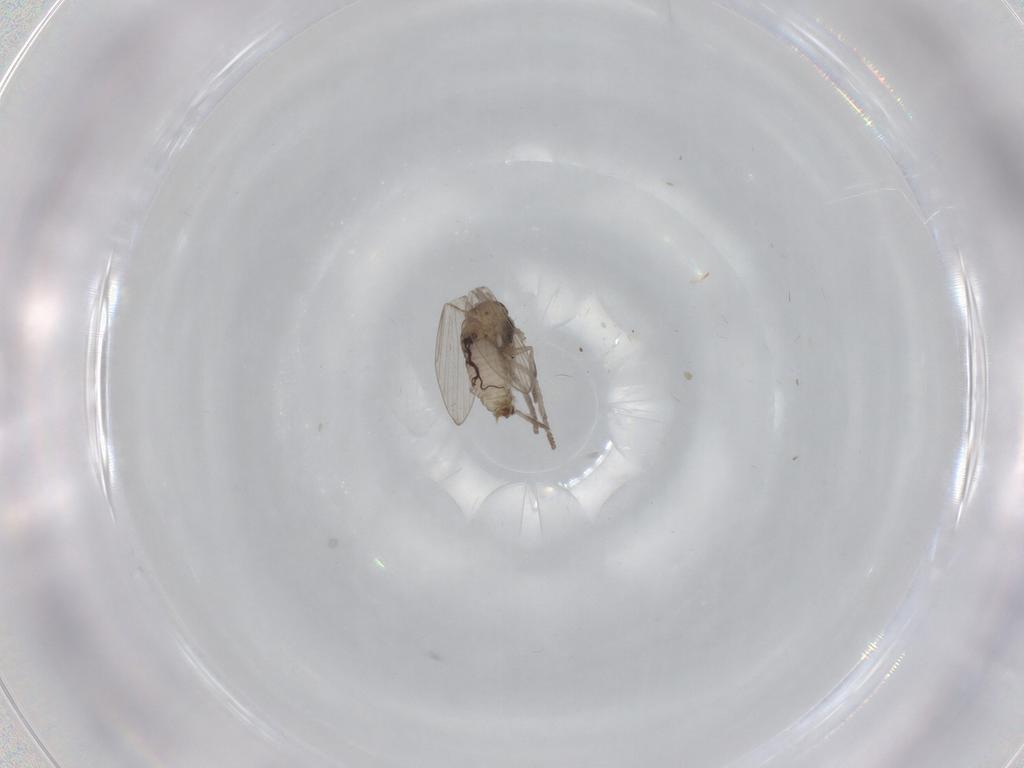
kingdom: Animalia
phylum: Arthropoda
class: Insecta
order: Diptera
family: Psychodidae
